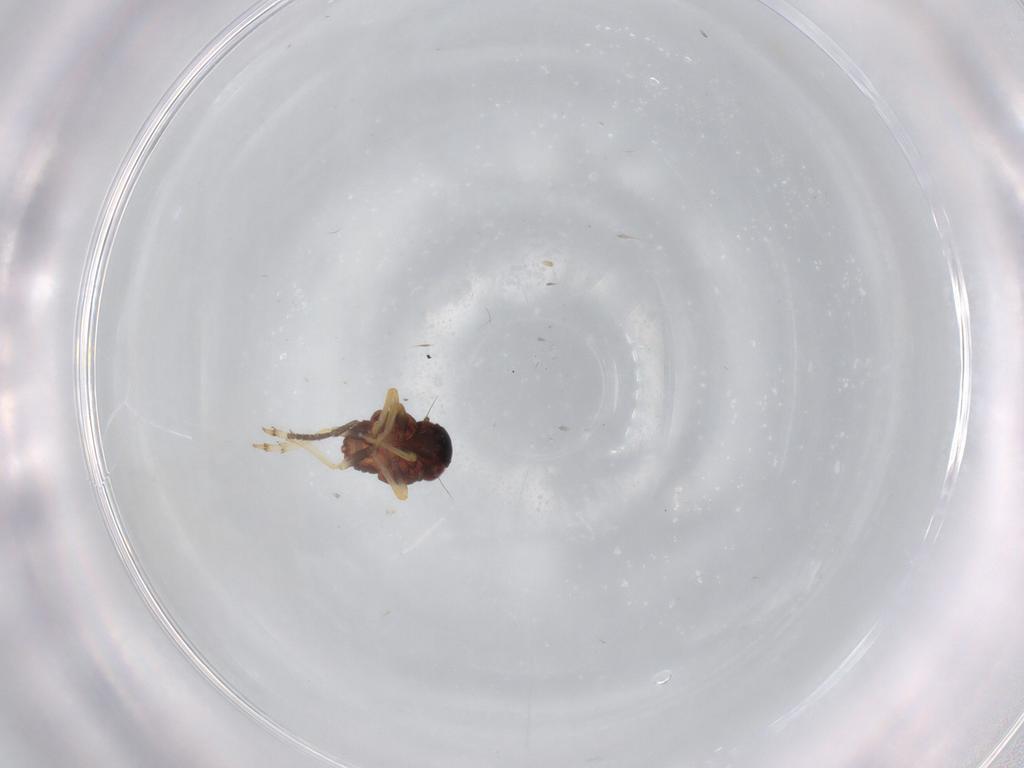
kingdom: Animalia
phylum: Arthropoda
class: Insecta
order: Hemiptera
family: Fulgoroidea_incertae_sedis
